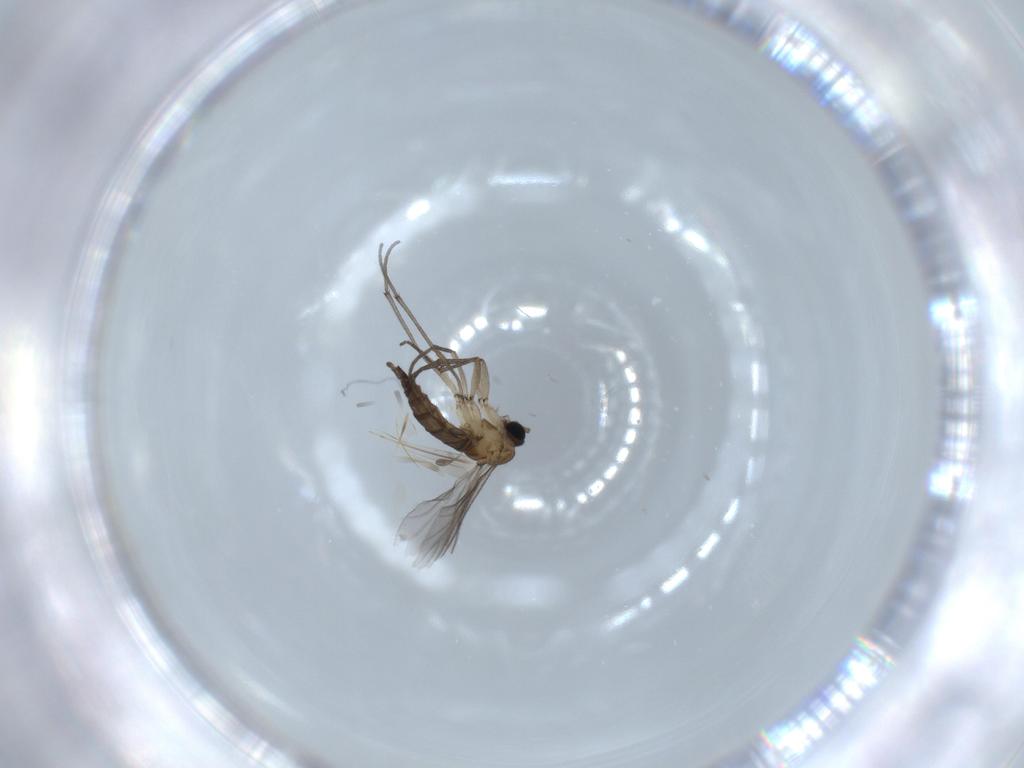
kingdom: Animalia
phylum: Arthropoda
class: Insecta
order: Diptera
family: Sciaridae
